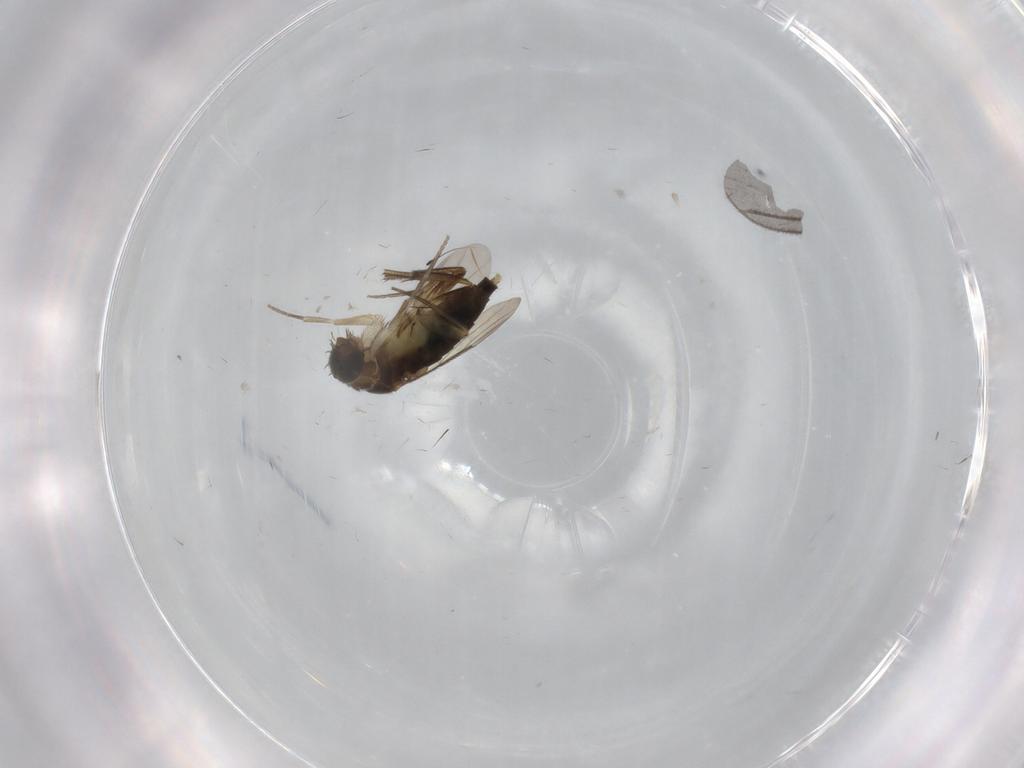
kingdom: Animalia
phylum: Arthropoda
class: Insecta
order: Diptera
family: Phoridae
